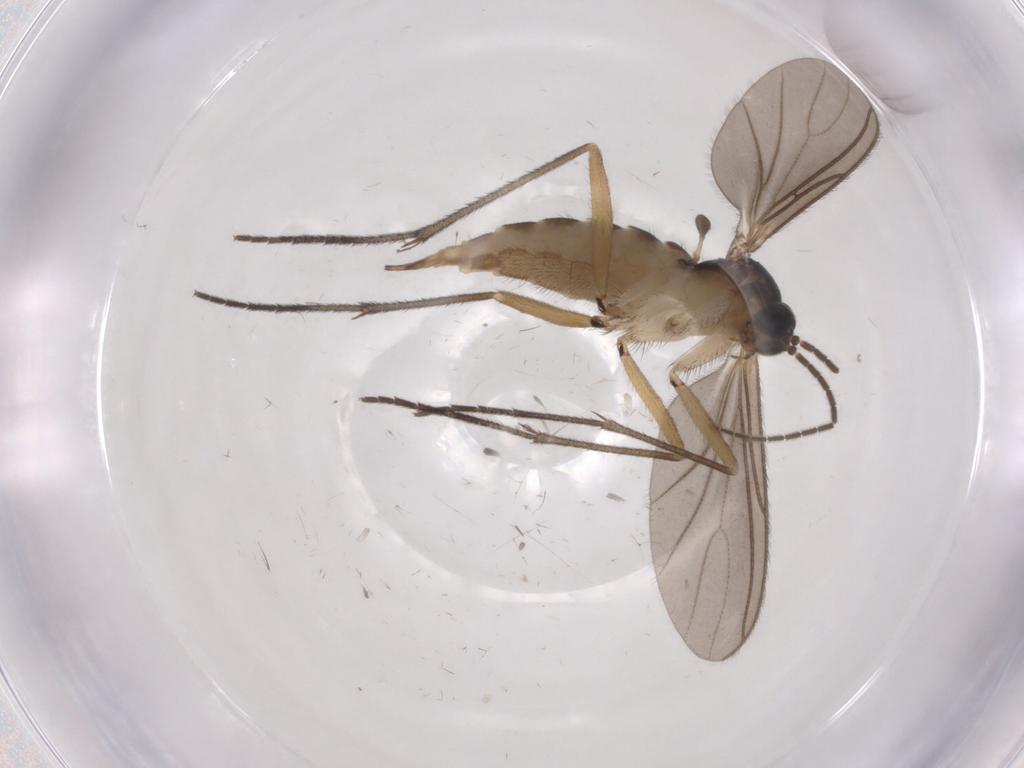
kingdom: Animalia
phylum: Arthropoda
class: Insecta
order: Diptera
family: Sciaridae
